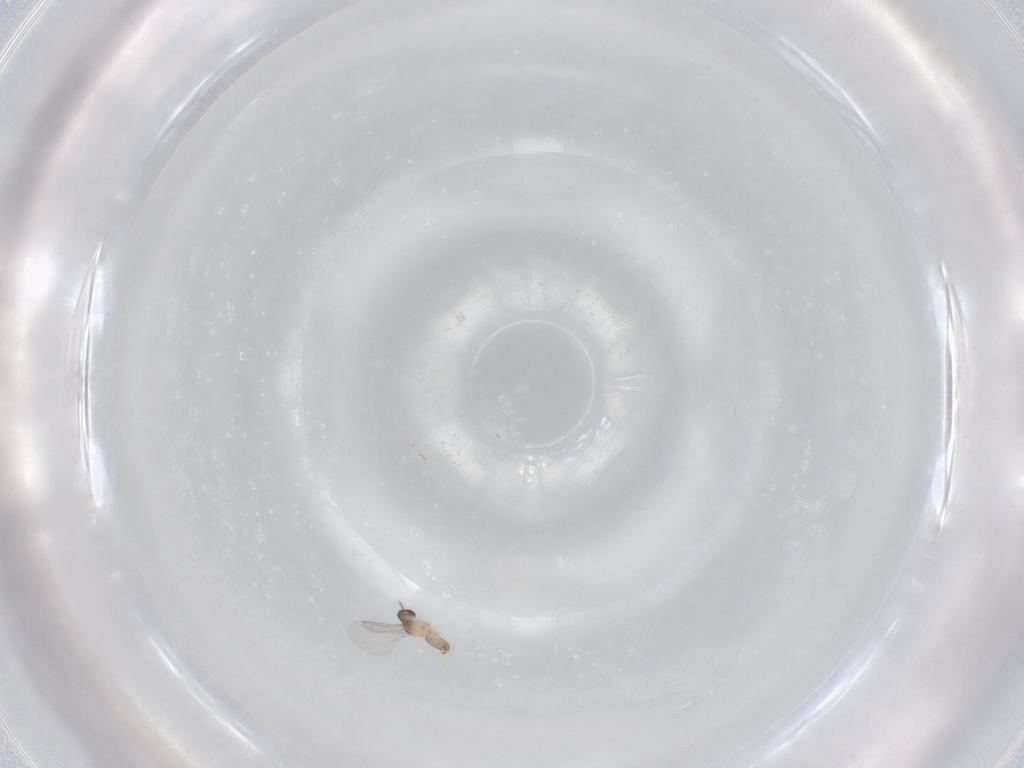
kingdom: Animalia
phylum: Arthropoda
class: Insecta
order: Diptera
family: Cecidomyiidae
